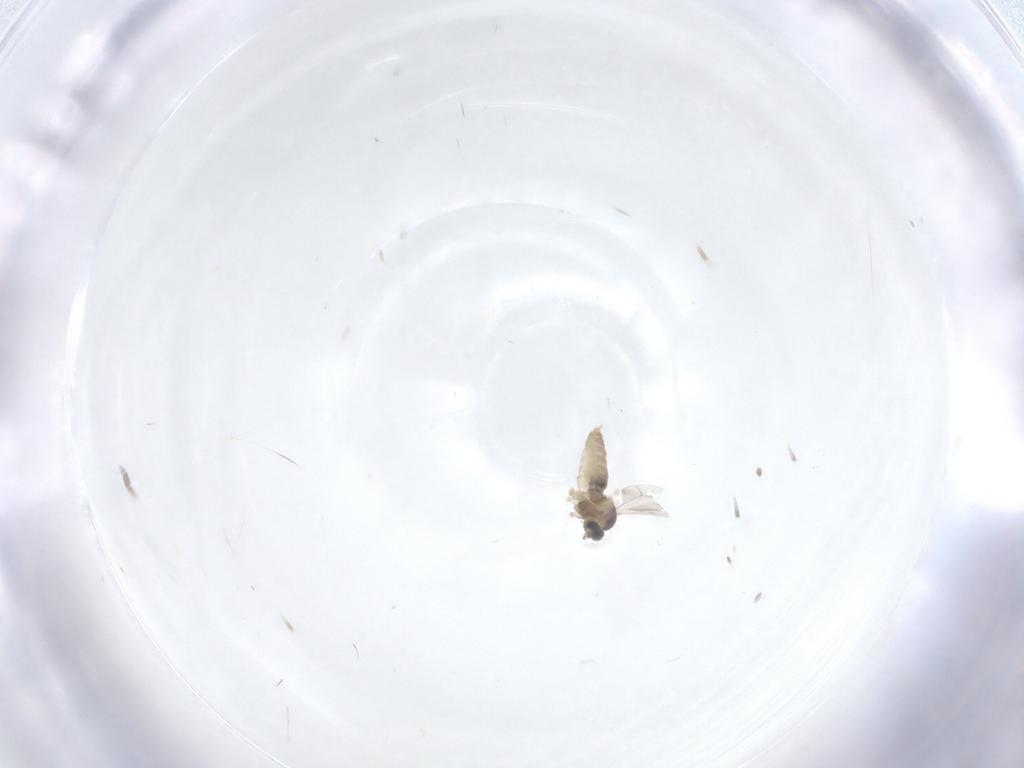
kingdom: Animalia
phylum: Arthropoda
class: Insecta
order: Diptera
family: Cecidomyiidae
